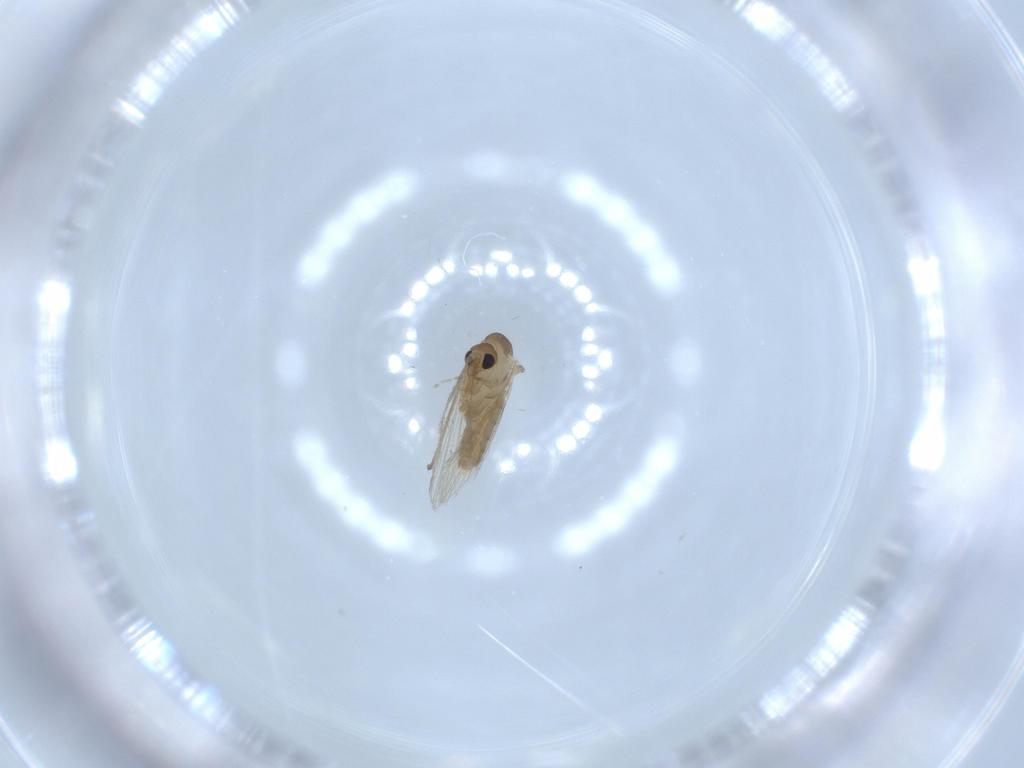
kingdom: Animalia
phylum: Arthropoda
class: Insecta
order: Diptera
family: Psychodidae
